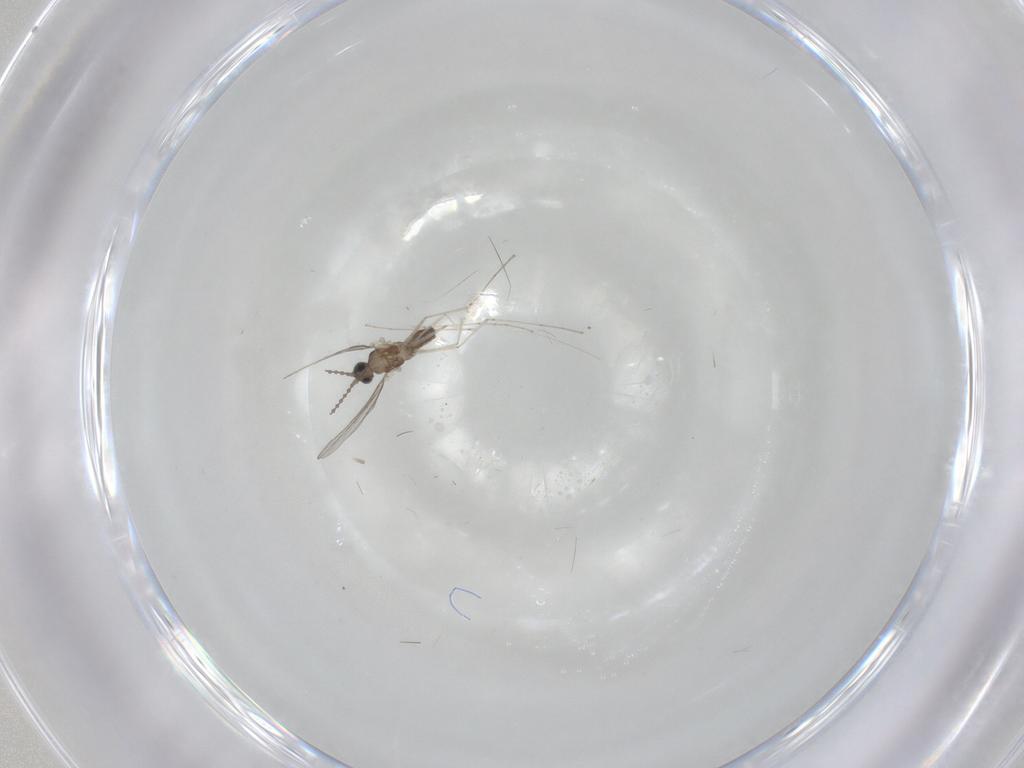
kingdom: Animalia
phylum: Arthropoda
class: Insecta
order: Diptera
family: Cecidomyiidae
